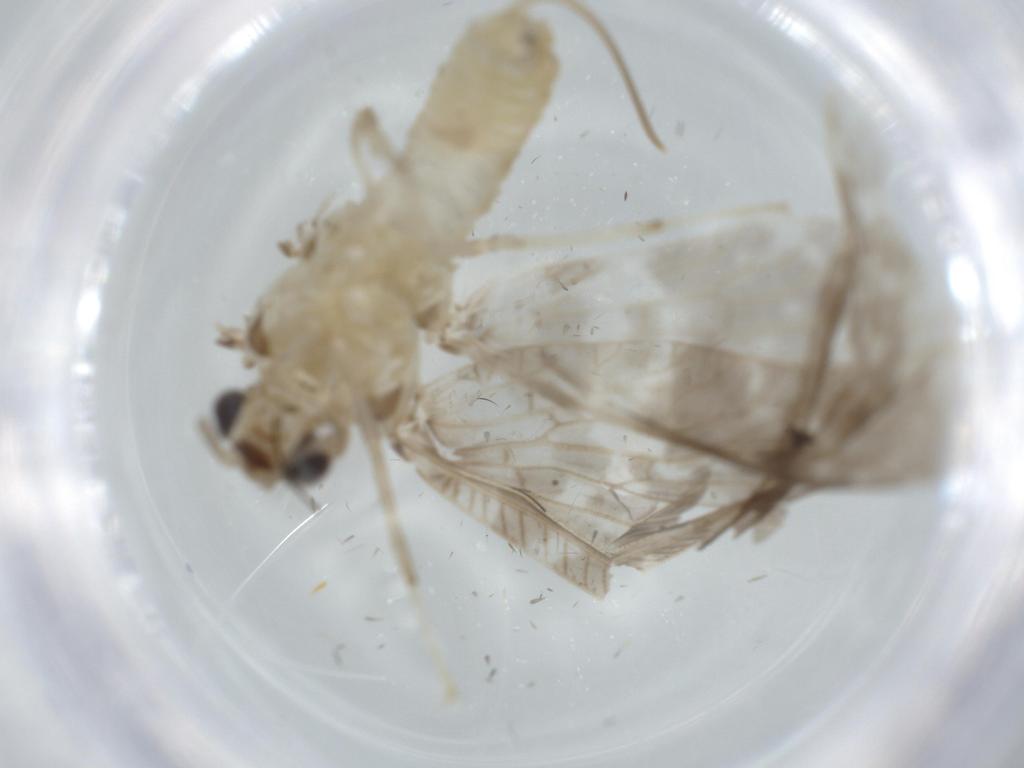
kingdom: Animalia
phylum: Arthropoda
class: Insecta
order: Neuroptera
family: Dilaridae
